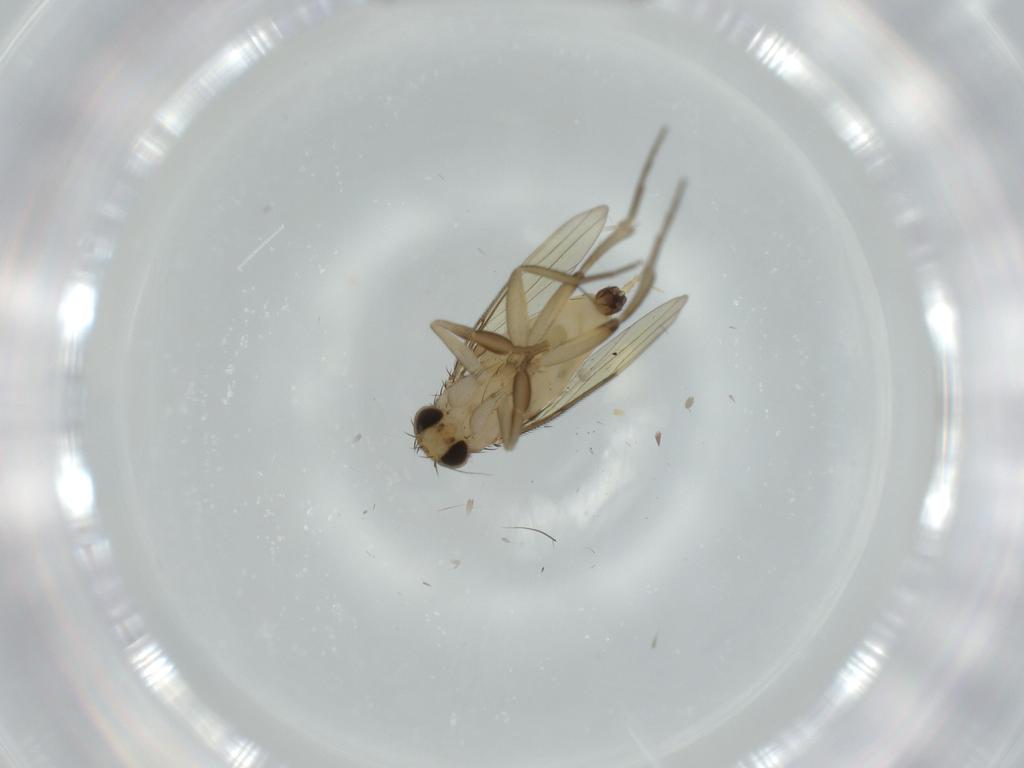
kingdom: Animalia
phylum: Arthropoda
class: Insecta
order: Diptera
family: Phoridae
